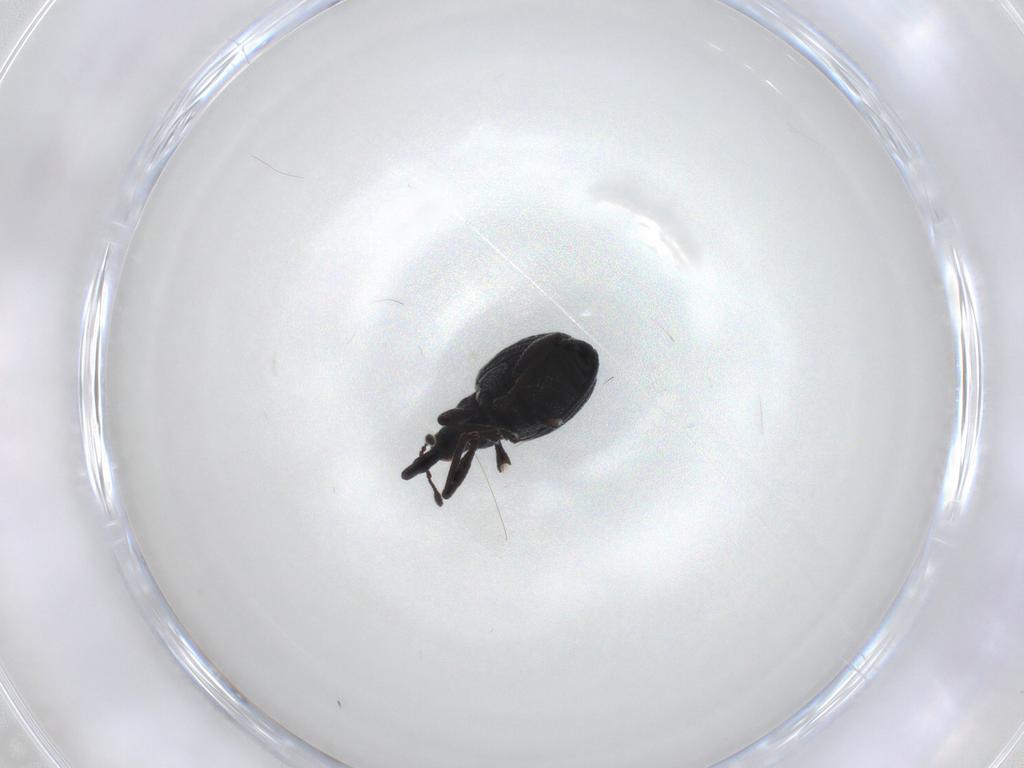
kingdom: Animalia
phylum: Arthropoda
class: Insecta
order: Coleoptera
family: Brentidae
